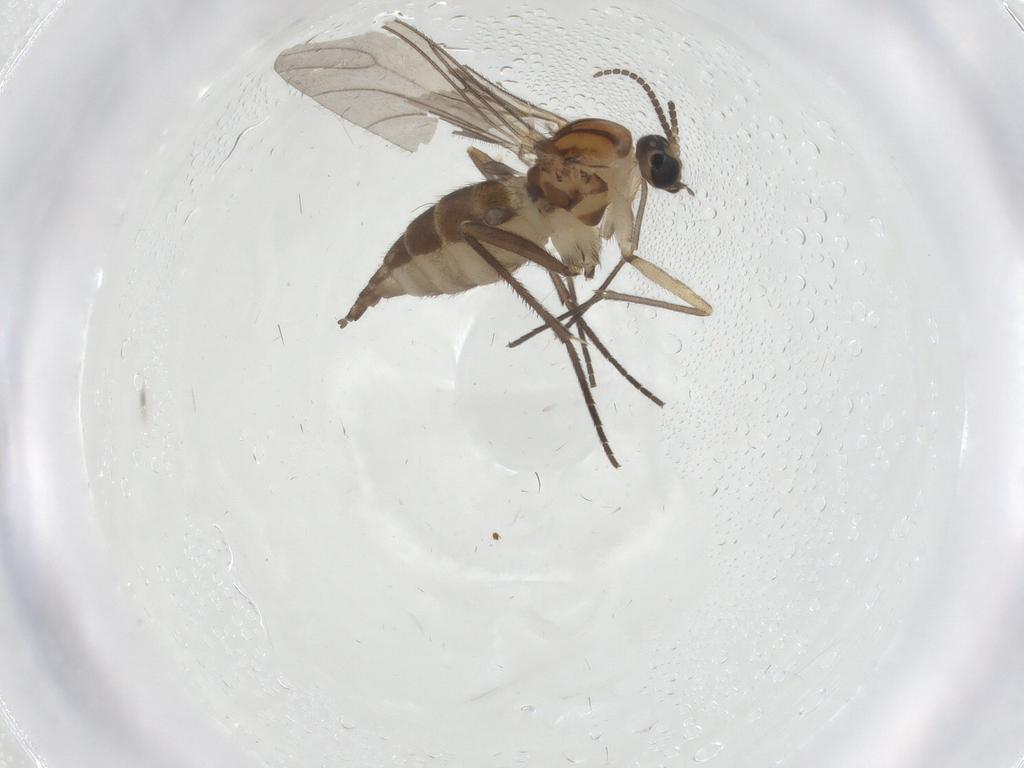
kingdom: Animalia
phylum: Arthropoda
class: Insecta
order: Diptera
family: Sciaridae
